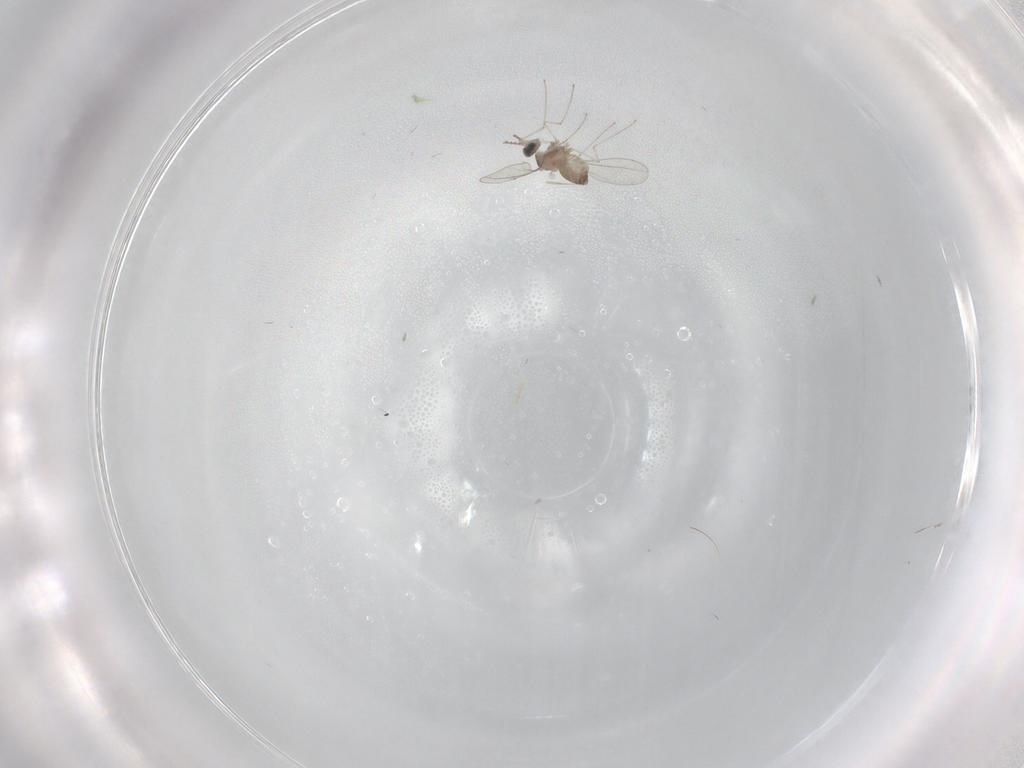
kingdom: Animalia
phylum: Arthropoda
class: Insecta
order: Diptera
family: Cecidomyiidae
